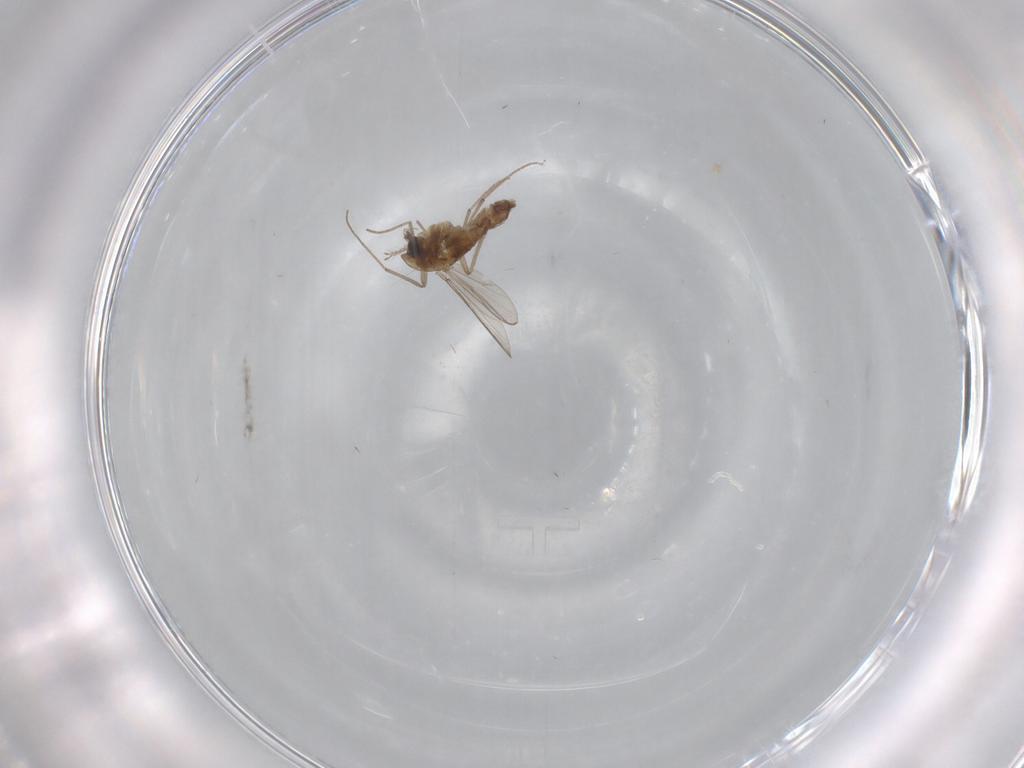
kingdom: Animalia
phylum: Arthropoda
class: Insecta
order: Diptera
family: Chironomidae
